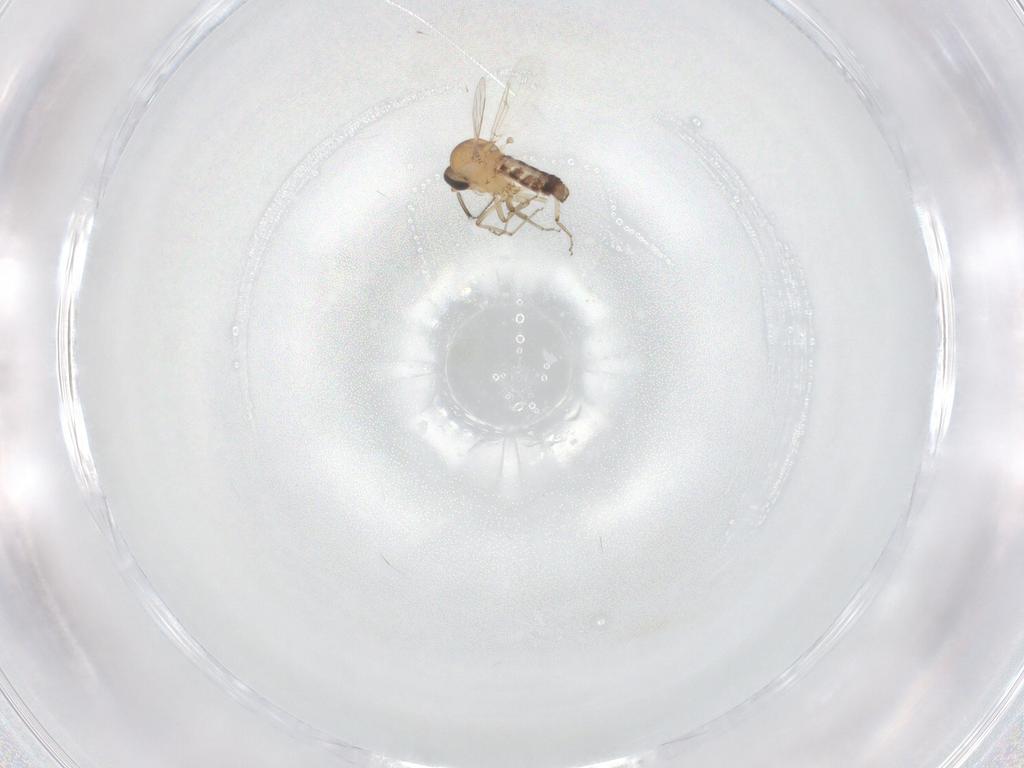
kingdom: Animalia
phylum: Arthropoda
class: Insecta
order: Diptera
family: Ceratopogonidae
